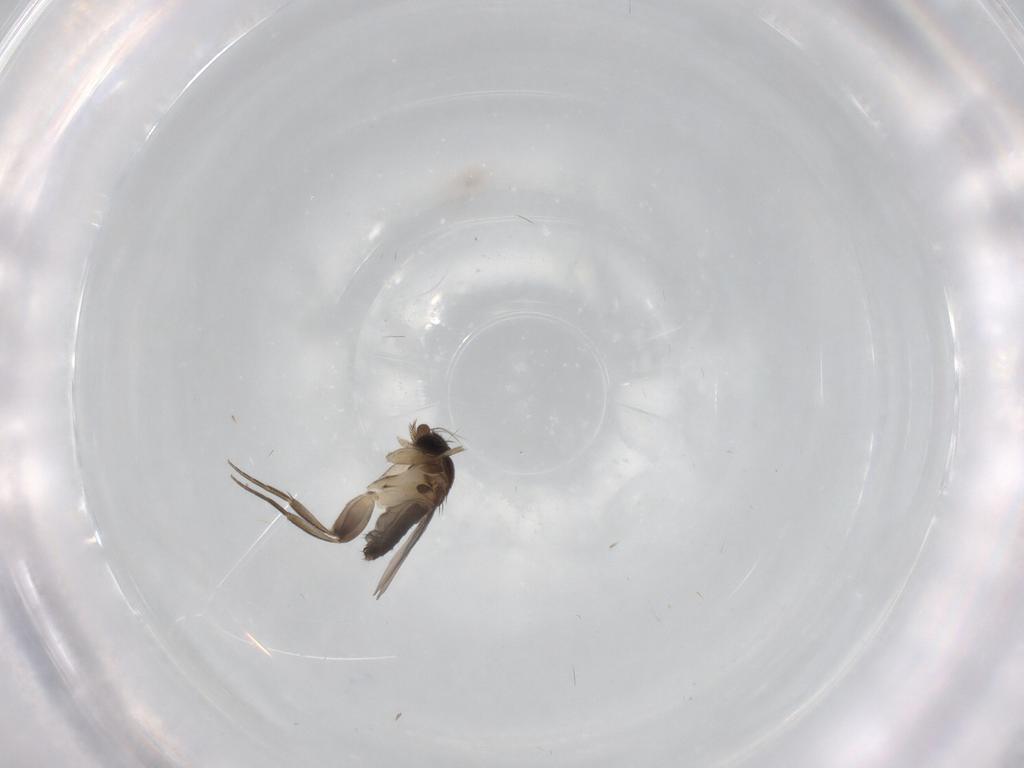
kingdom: Animalia
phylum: Arthropoda
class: Insecta
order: Diptera
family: Phoridae
